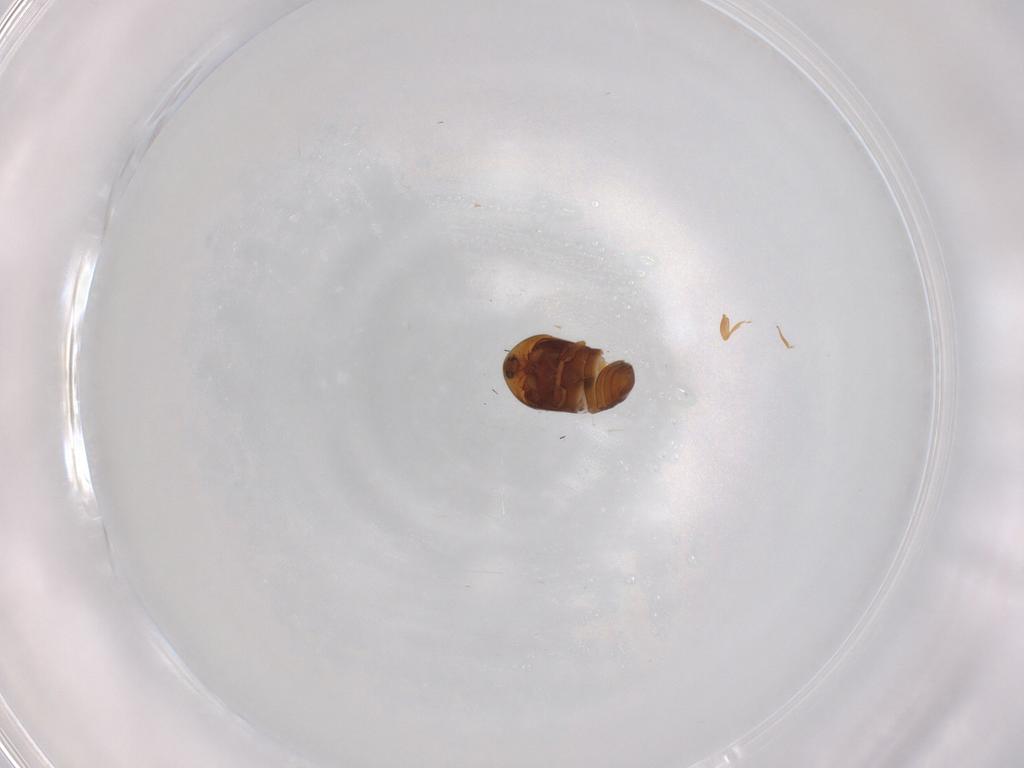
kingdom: Animalia
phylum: Arthropoda
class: Insecta
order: Coleoptera
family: Corylophidae
